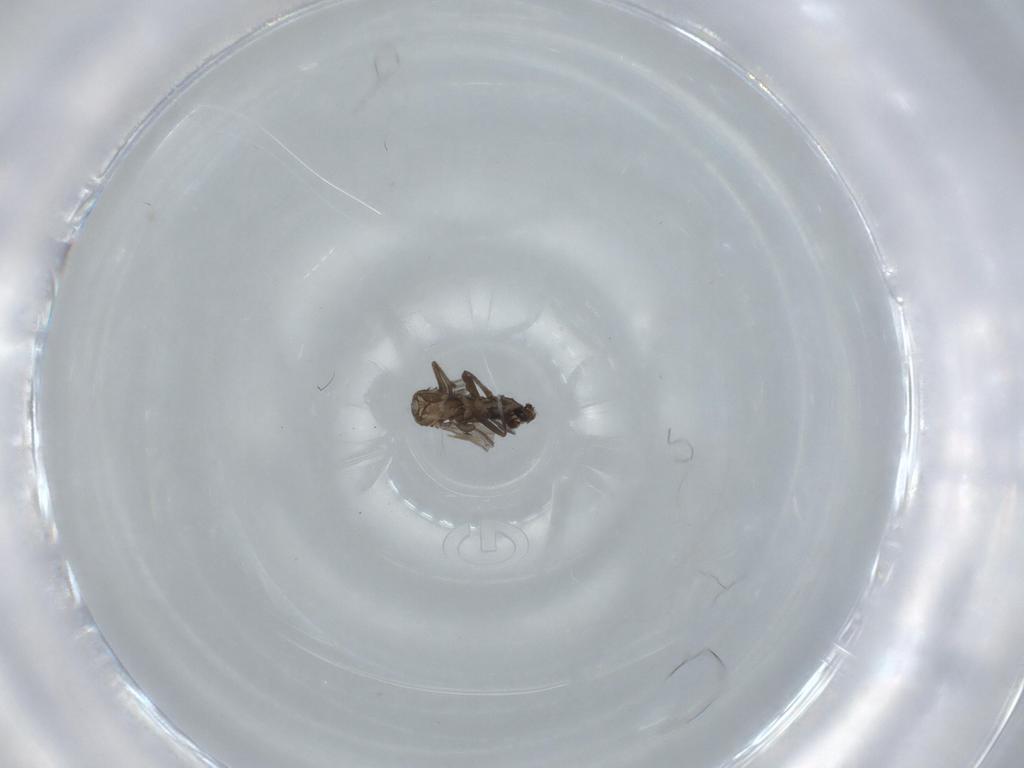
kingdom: Animalia
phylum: Arthropoda
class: Insecta
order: Diptera
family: Phoridae
